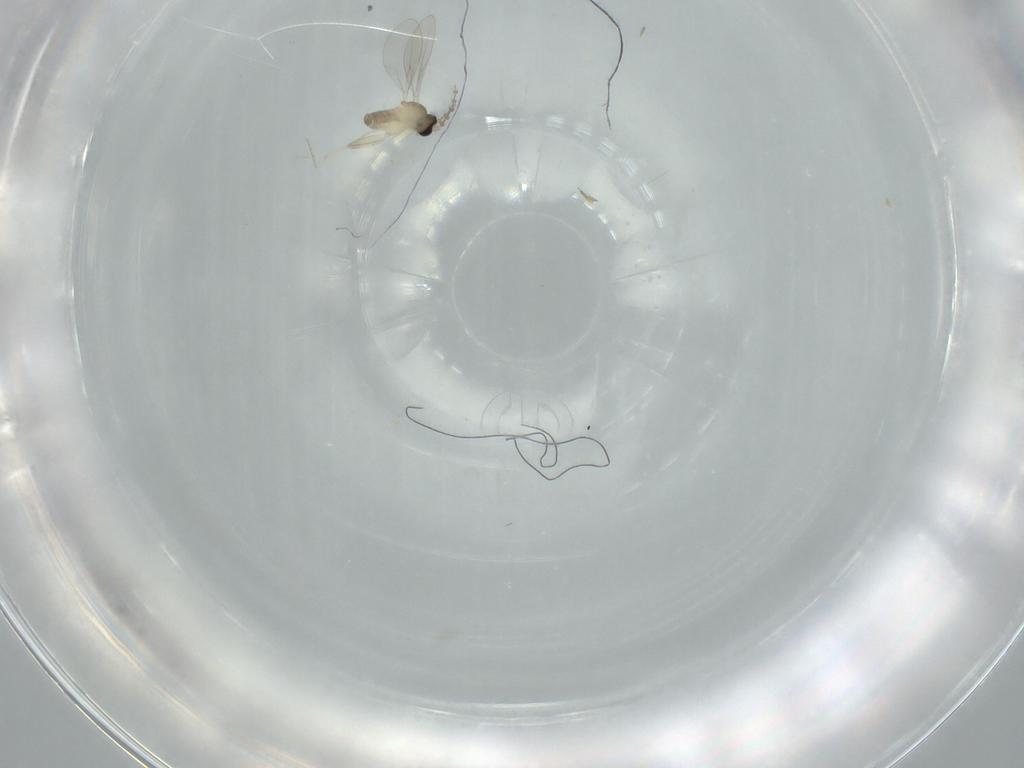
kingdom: Animalia
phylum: Arthropoda
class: Insecta
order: Diptera
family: Cecidomyiidae
